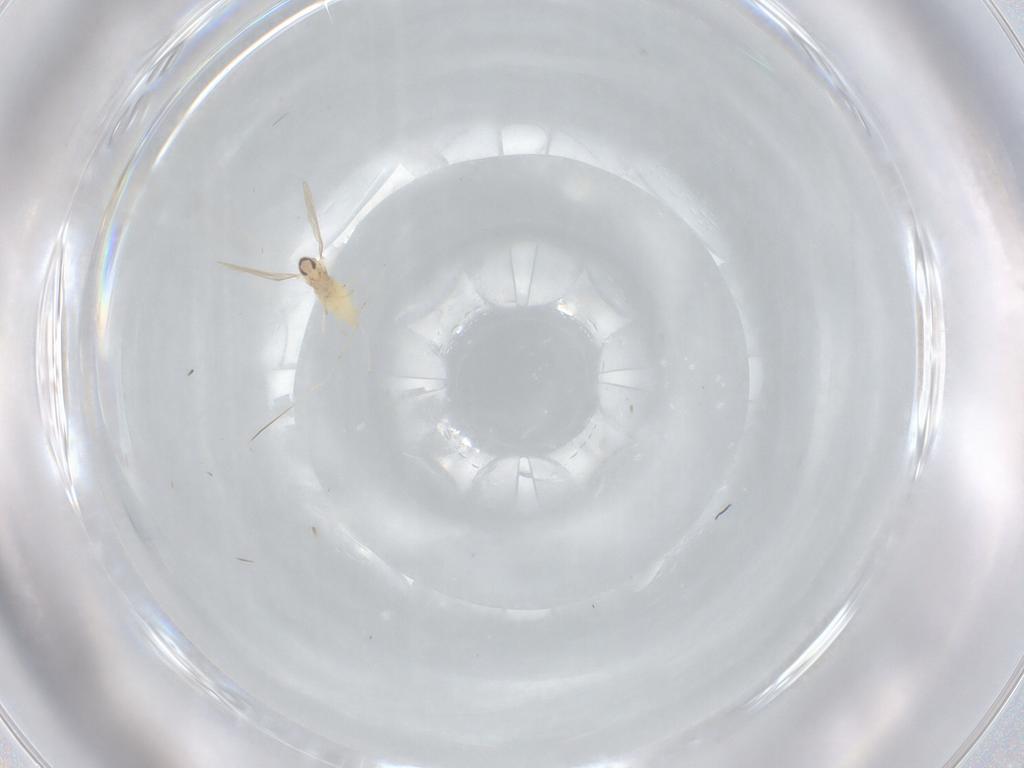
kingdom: Animalia
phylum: Arthropoda
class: Insecta
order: Diptera
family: Cecidomyiidae
